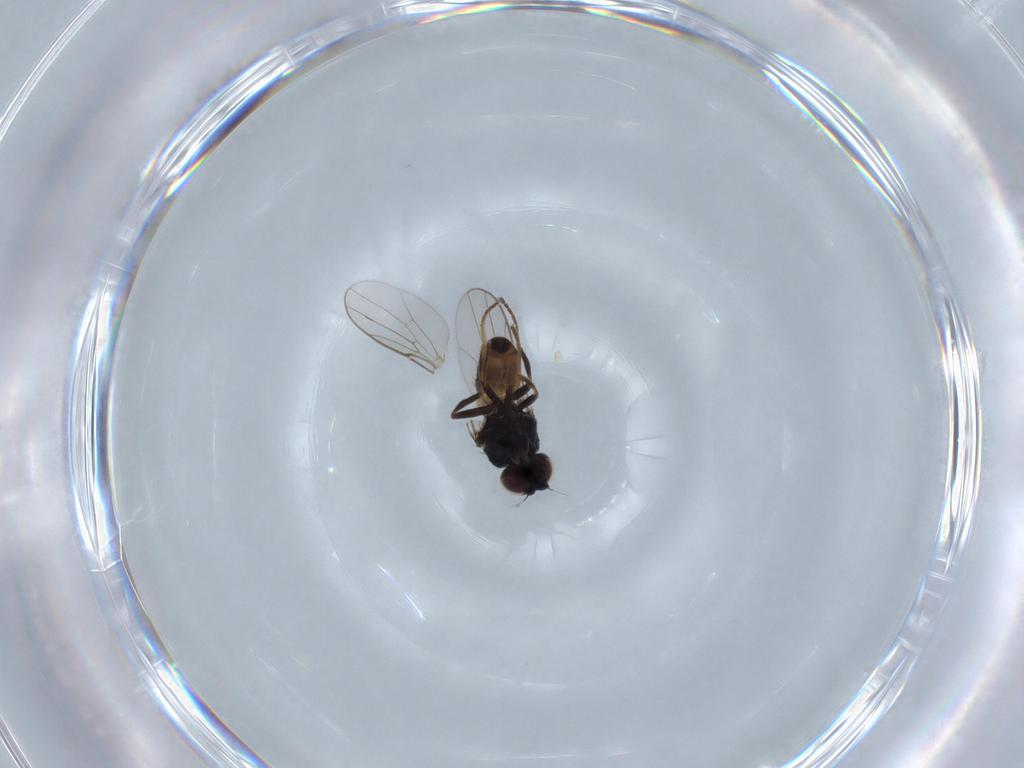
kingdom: Animalia
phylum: Arthropoda
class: Insecta
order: Diptera
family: Chloropidae
